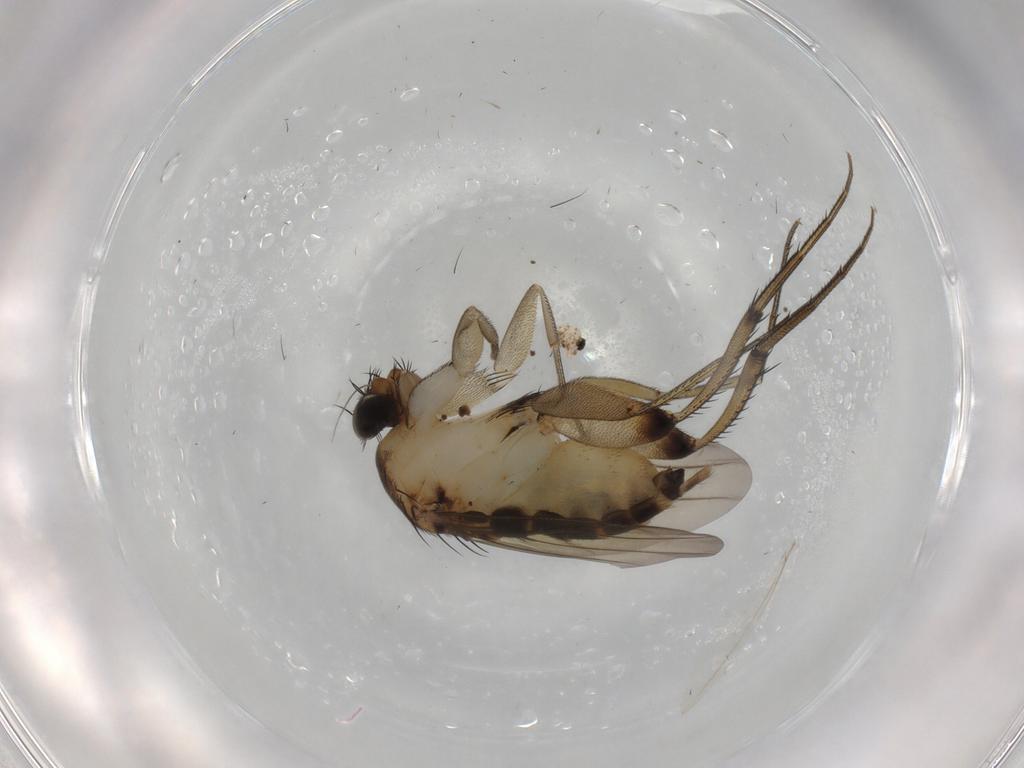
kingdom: Animalia
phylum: Arthropoda
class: Insecta
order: Diptera
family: Phoridae
